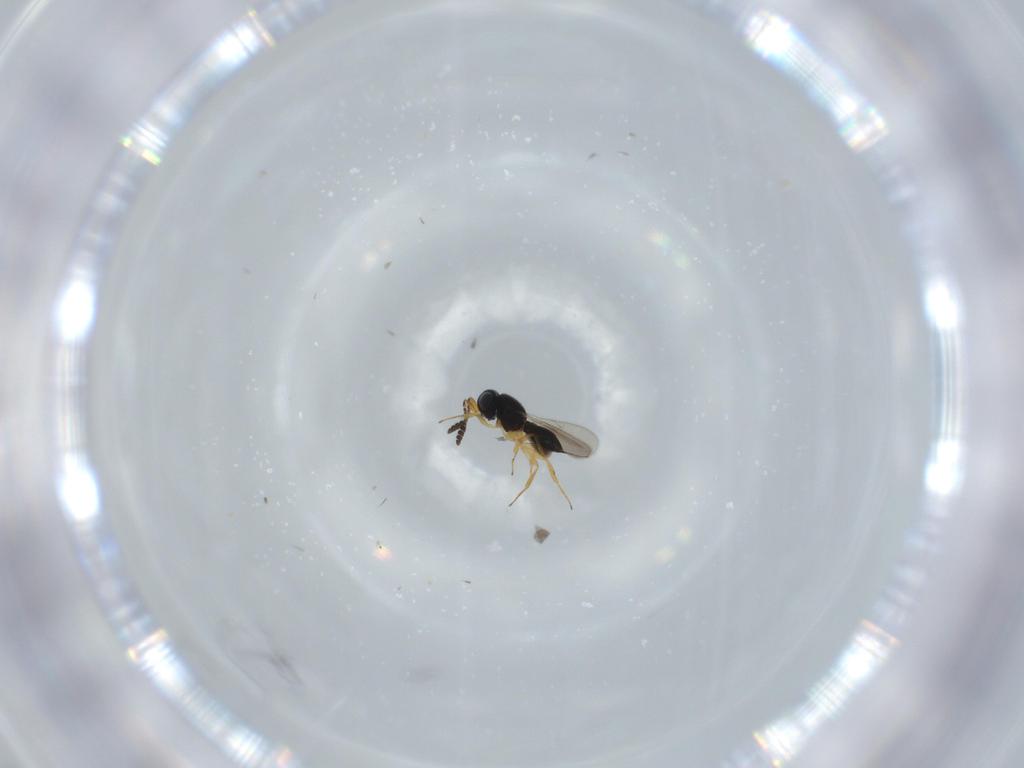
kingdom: Animalia
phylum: Arthropoda
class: Insecta
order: Hymenoptera
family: Scelionidae
